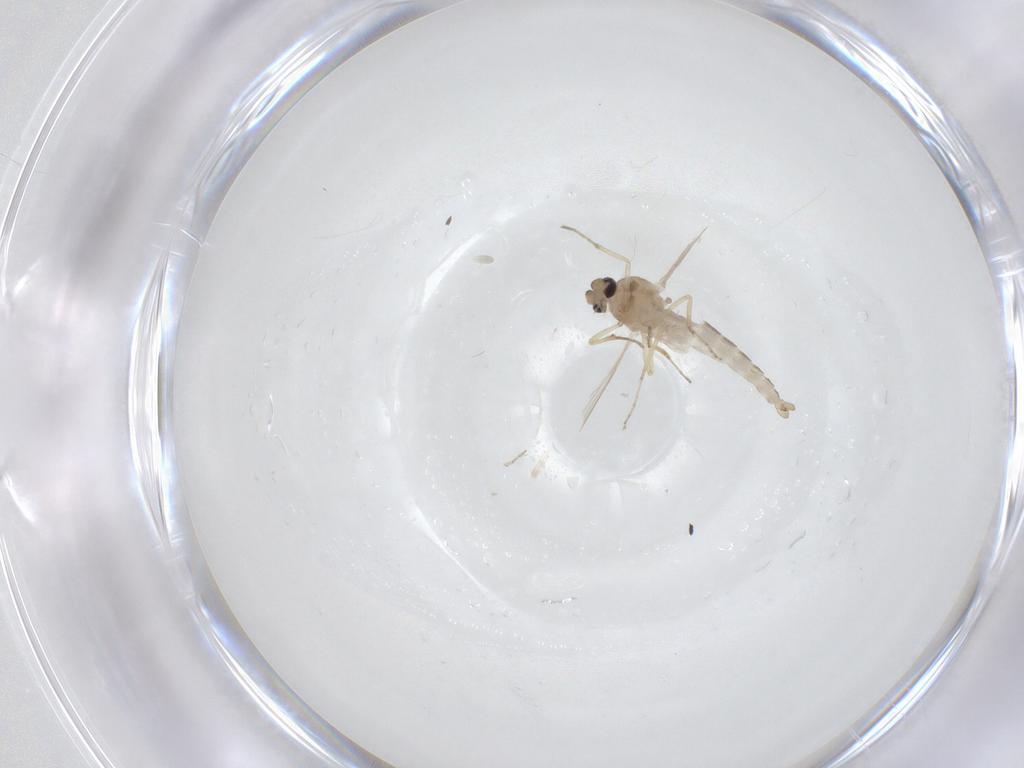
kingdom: Animalia
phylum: Arthropoda
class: Insecta
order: Diptera
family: Ceratopogonidae
